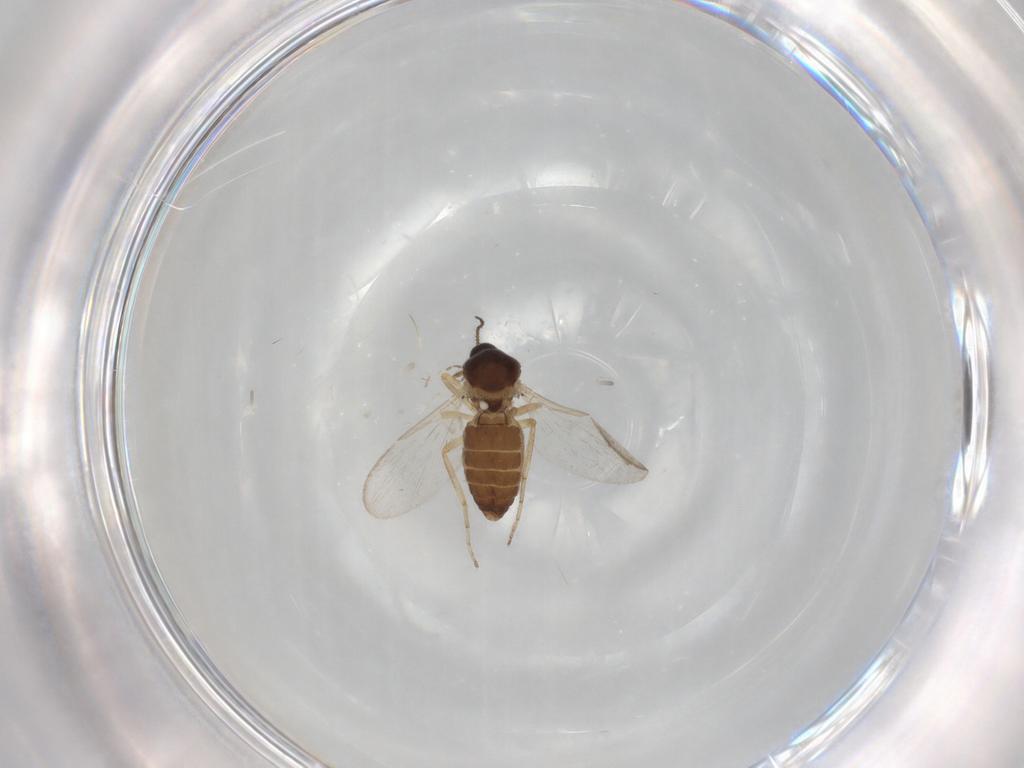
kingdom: Animalia
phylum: Arthropoda
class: Insecta
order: Diptera
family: Ceratopogonidae
